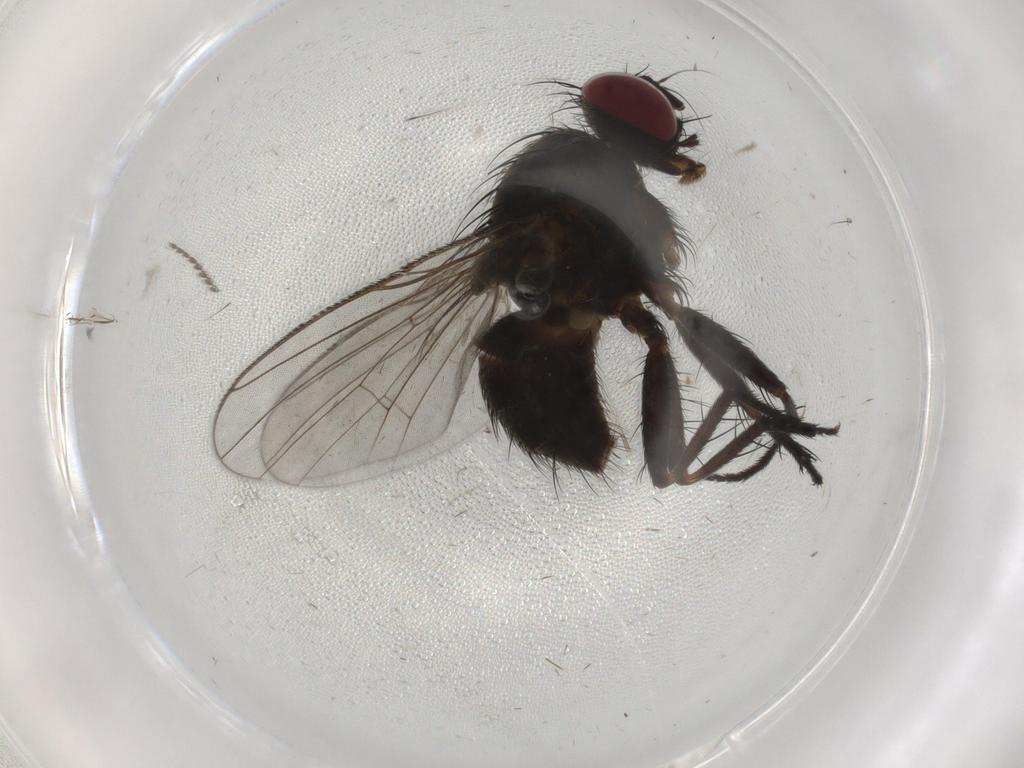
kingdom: Animalia
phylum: Arthropoda
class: Insecta
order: Diptera
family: Muscidae
